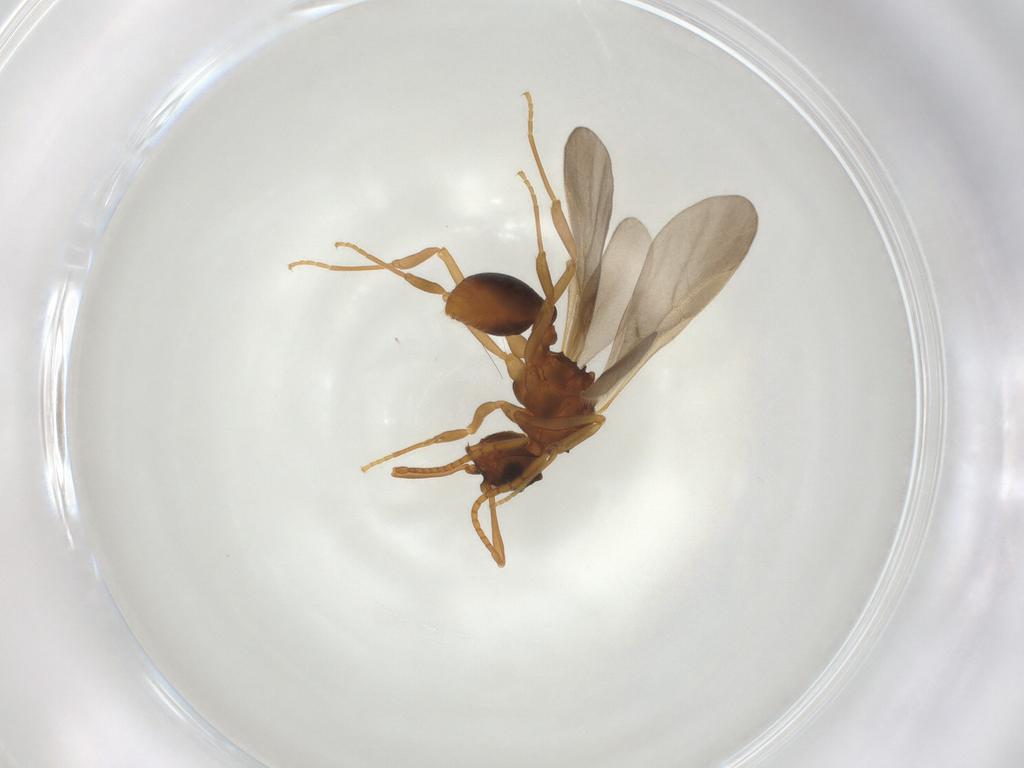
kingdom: Animalia
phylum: Arthropoda
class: Insecta
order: Hymenoptera
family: Formicidae
